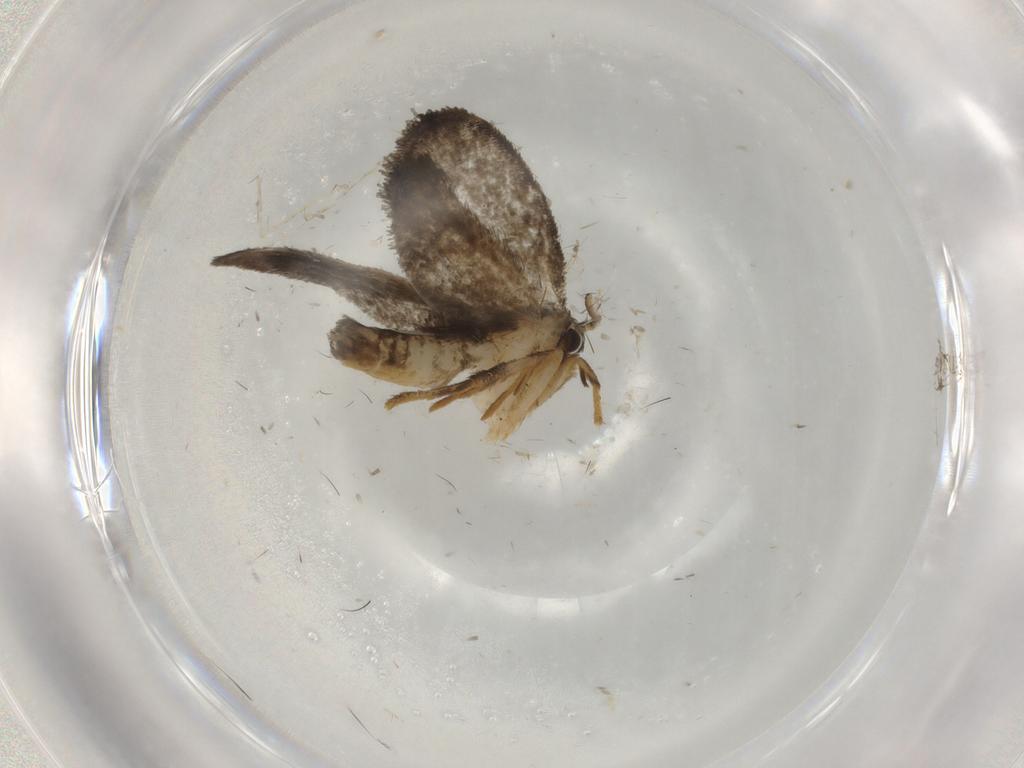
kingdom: Animalia
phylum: Arthropoda
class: Insecta
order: Lepidoptera
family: Psychidae
